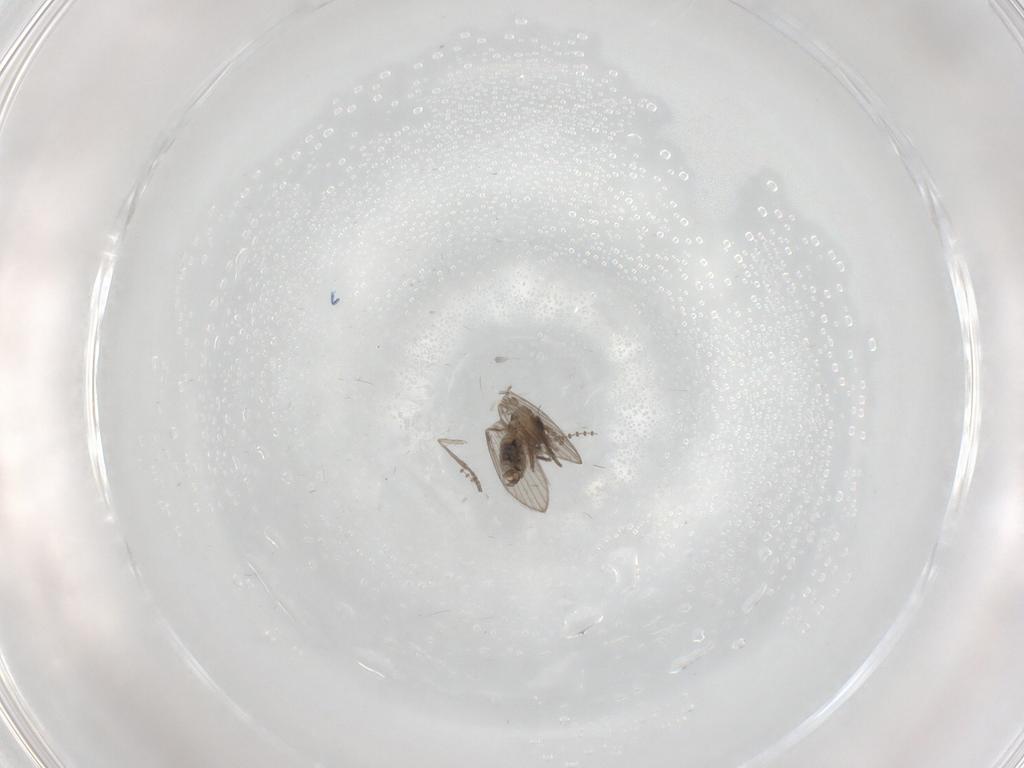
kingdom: Animalia
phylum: Arthropoda
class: Insecta
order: Diptera
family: Psychodidae
